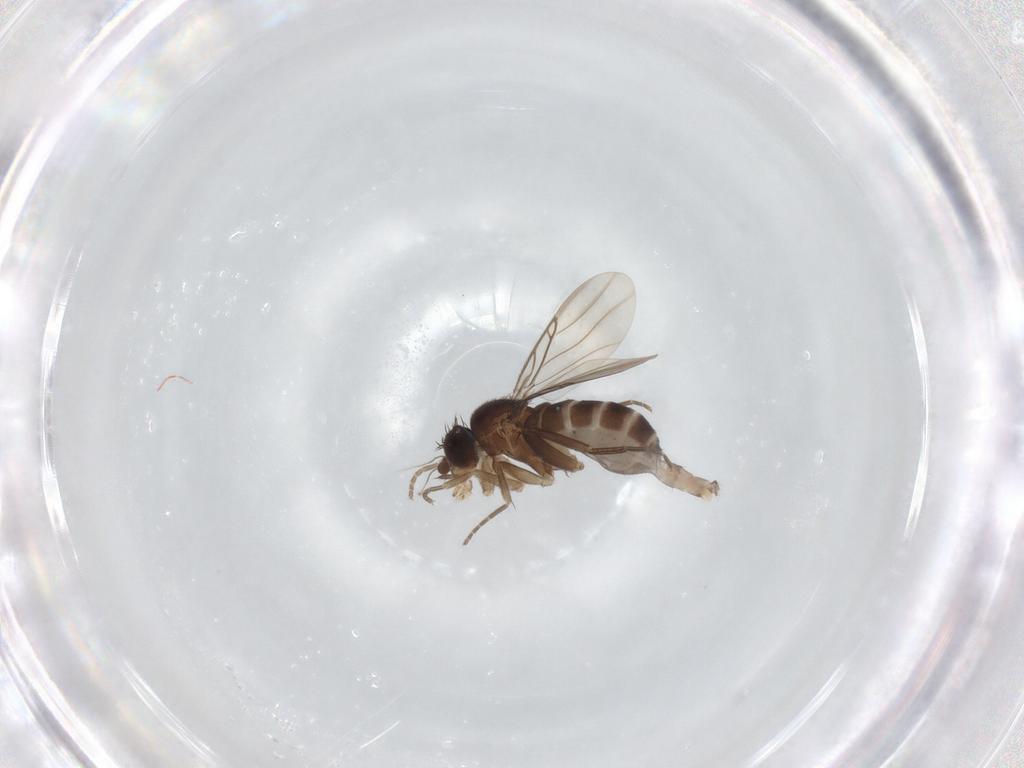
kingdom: Animalia
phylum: Arthropoda
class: Insecta
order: Diptera
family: Phoridae
